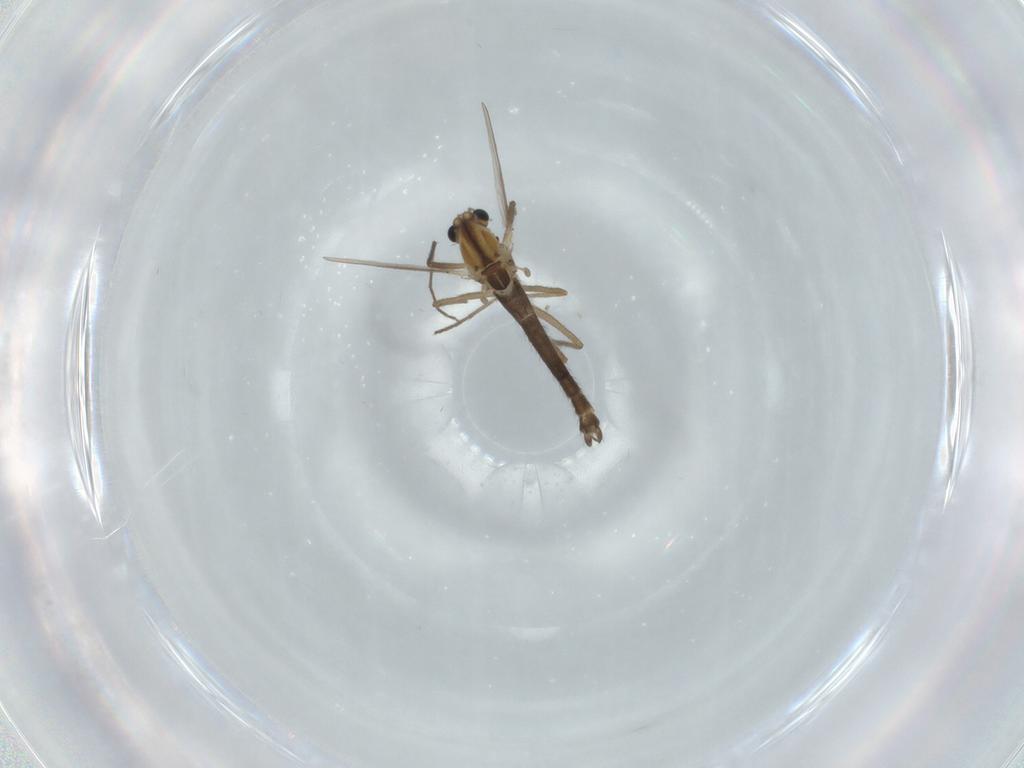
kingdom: Animalia
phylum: Arthropoda
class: Insecta
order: Diptera
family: Chironomidae
